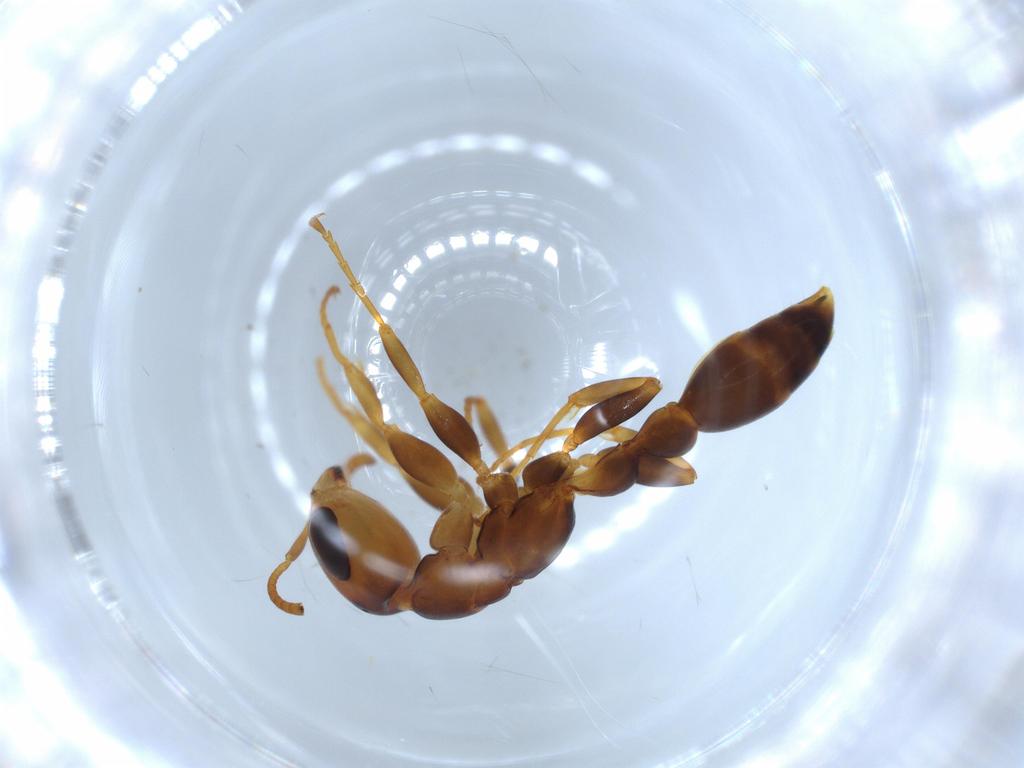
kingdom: Animalia
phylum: Arthropoda
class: Insecta
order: Hymenoptera
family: Formicidae
